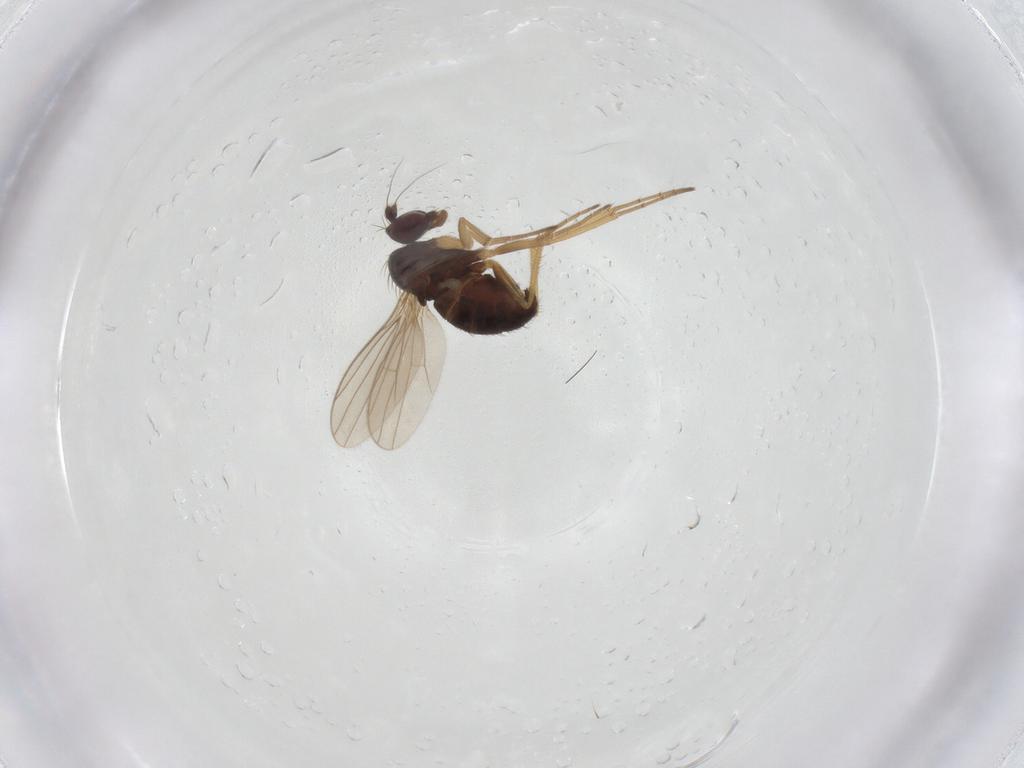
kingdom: Animalia
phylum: Arthropoda
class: Insecta
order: Diptera
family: Dolichopodidae
